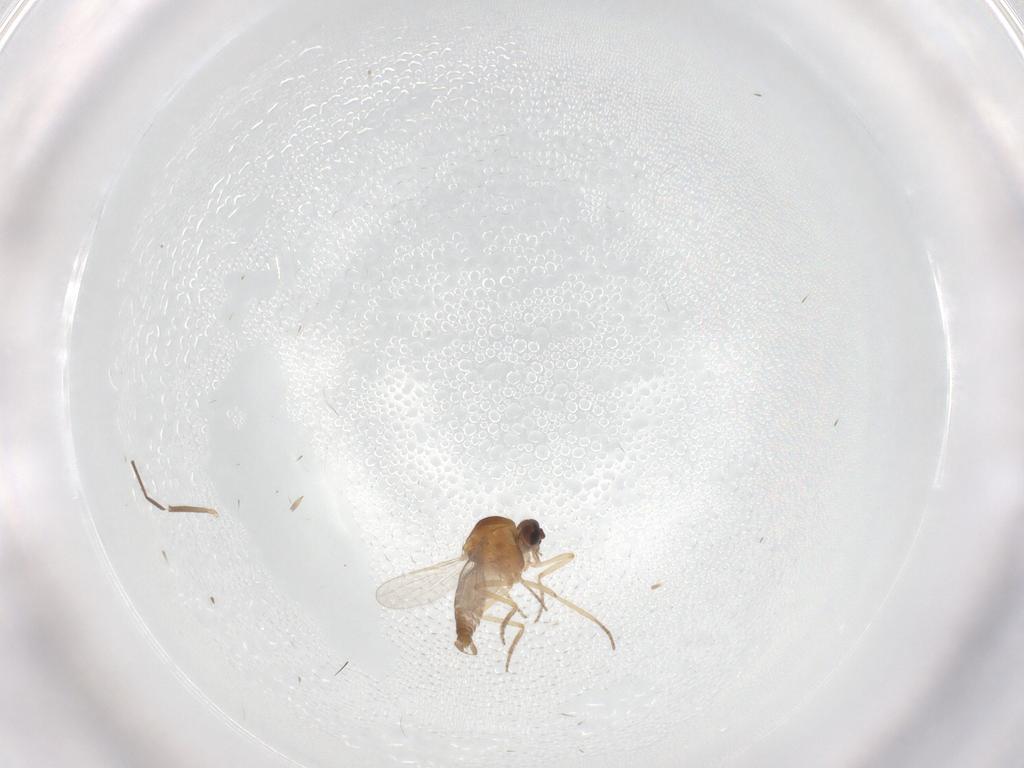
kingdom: Animalia
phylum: Arthropoda
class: Insecta
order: Diptera
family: Chironomidae
